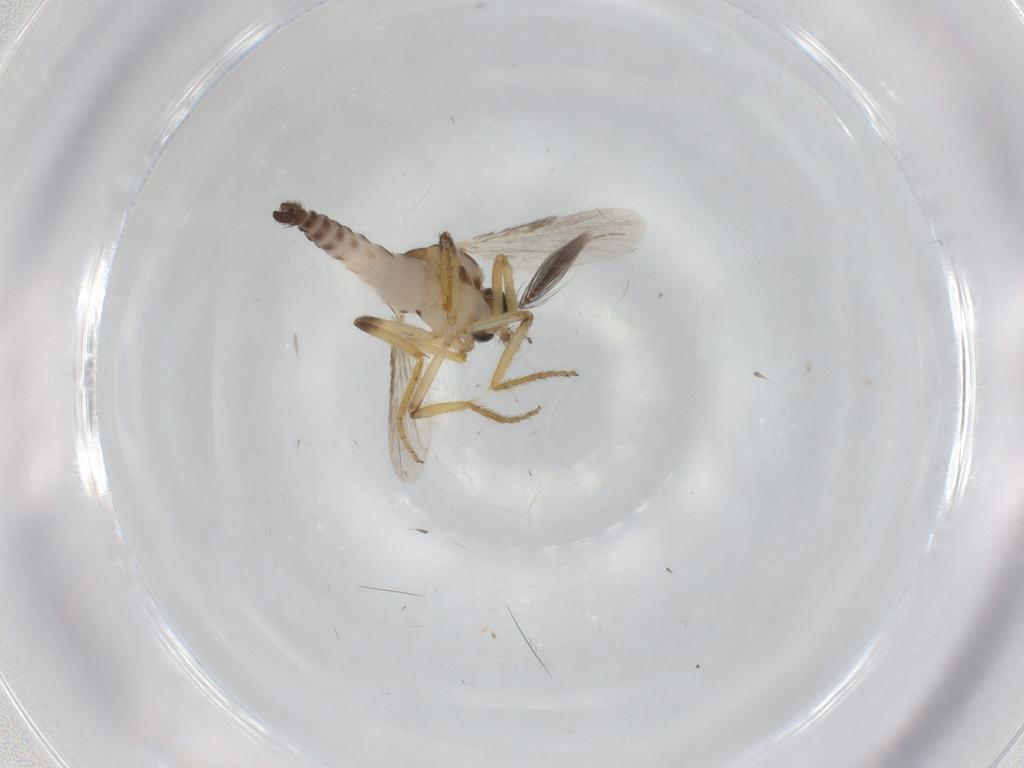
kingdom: Animalia
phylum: Arthropoda
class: Insecta
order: Diptera
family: Ceratopogonidae
